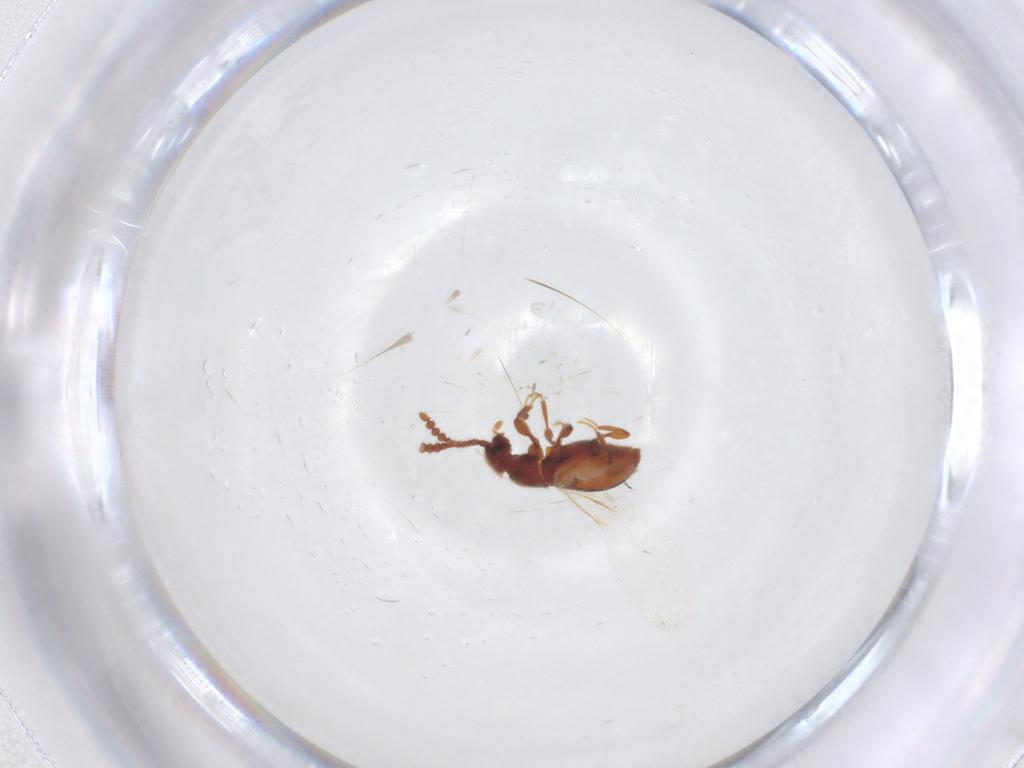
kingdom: Animalia
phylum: Arthropoda
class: Insecta
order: Coleoptera
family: Staphylinidae
